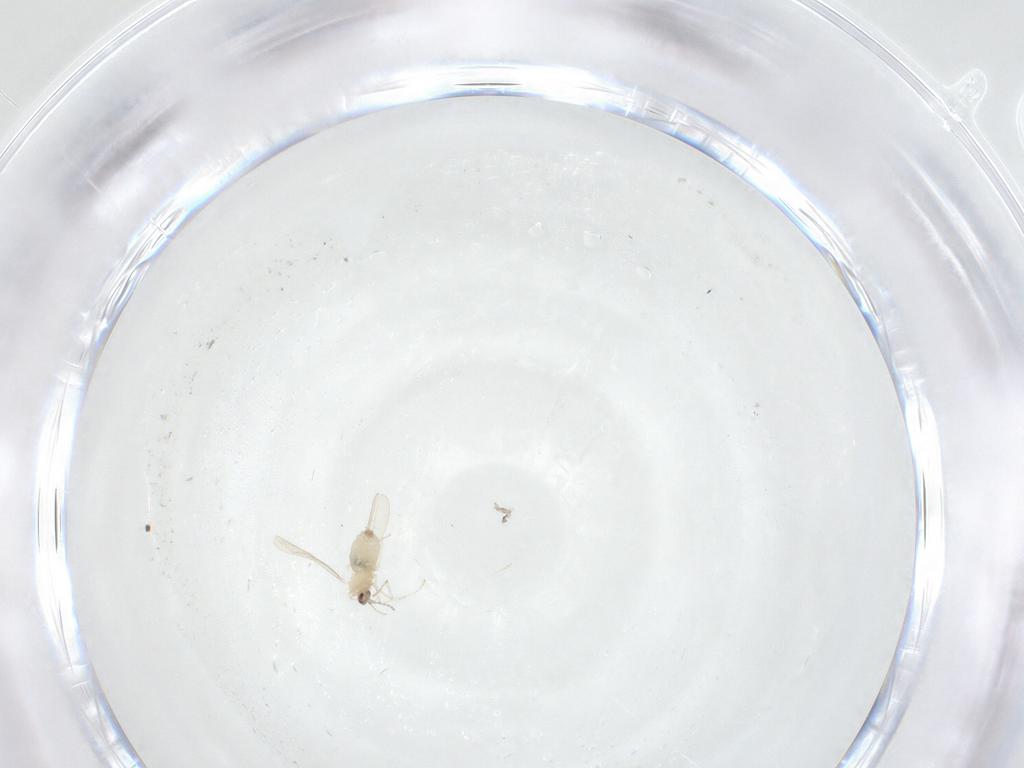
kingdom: Animalia
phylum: Arthropoda
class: Insecta
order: Diptera
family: Cecidomyiidae
